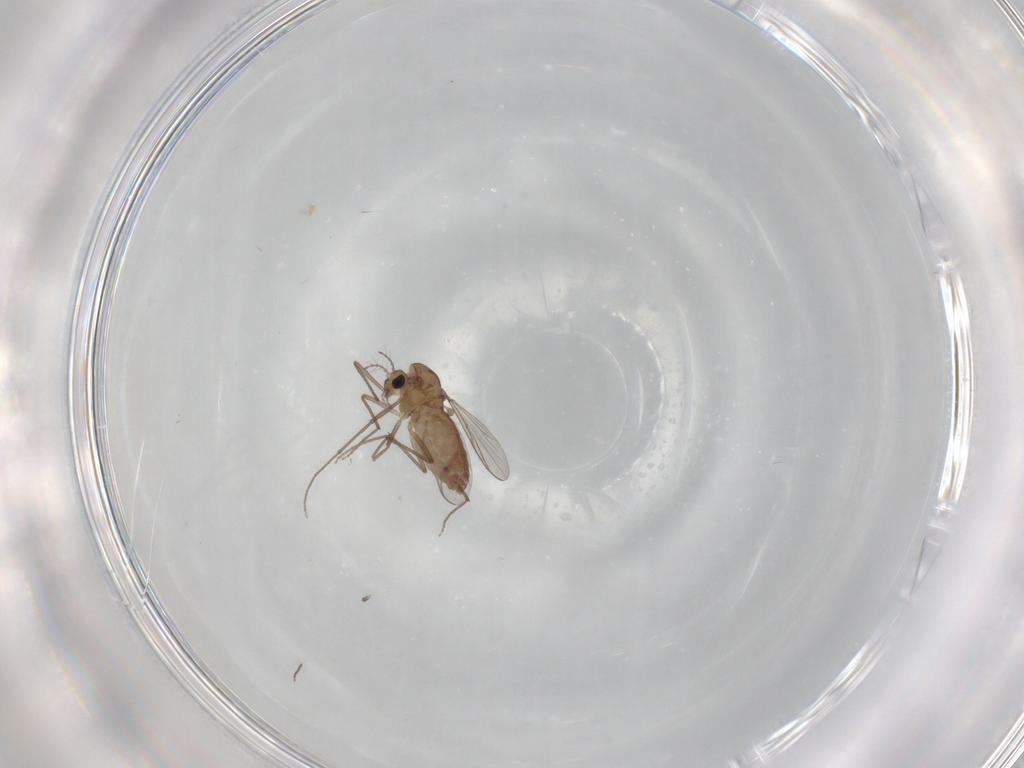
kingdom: Animalia
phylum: Arthropoda
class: Insecta
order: Diptera
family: Chironomidae
